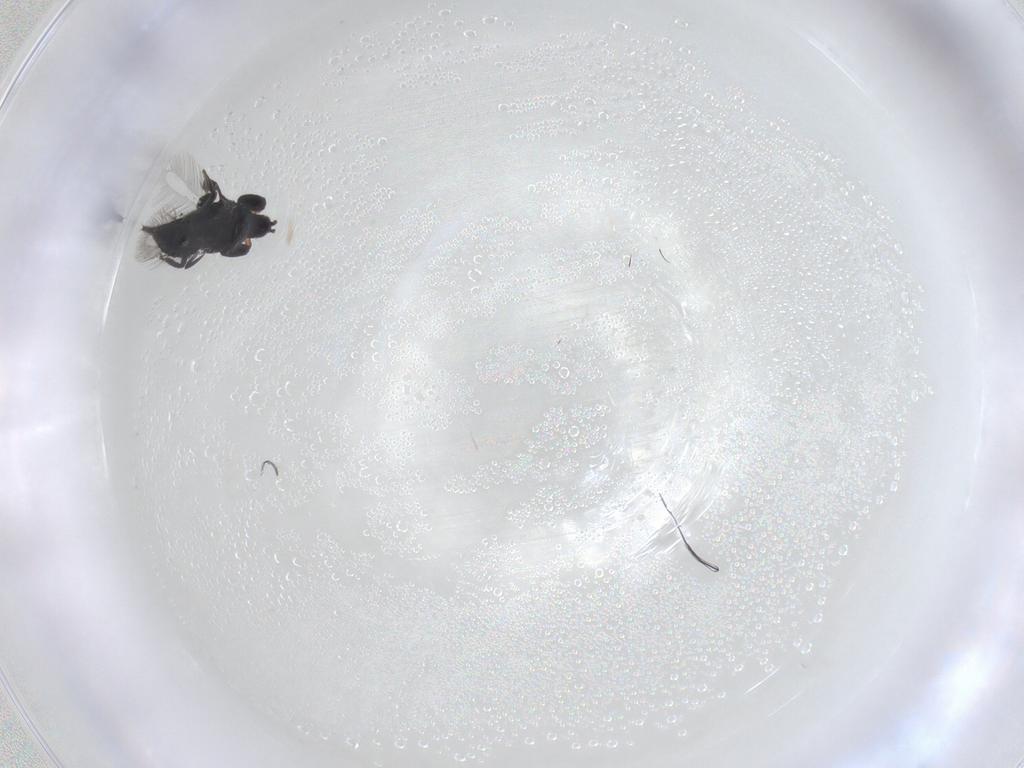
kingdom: Animalia
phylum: Arthropoda
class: Insecta
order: Thysanoptera
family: Phlaeothripidae
